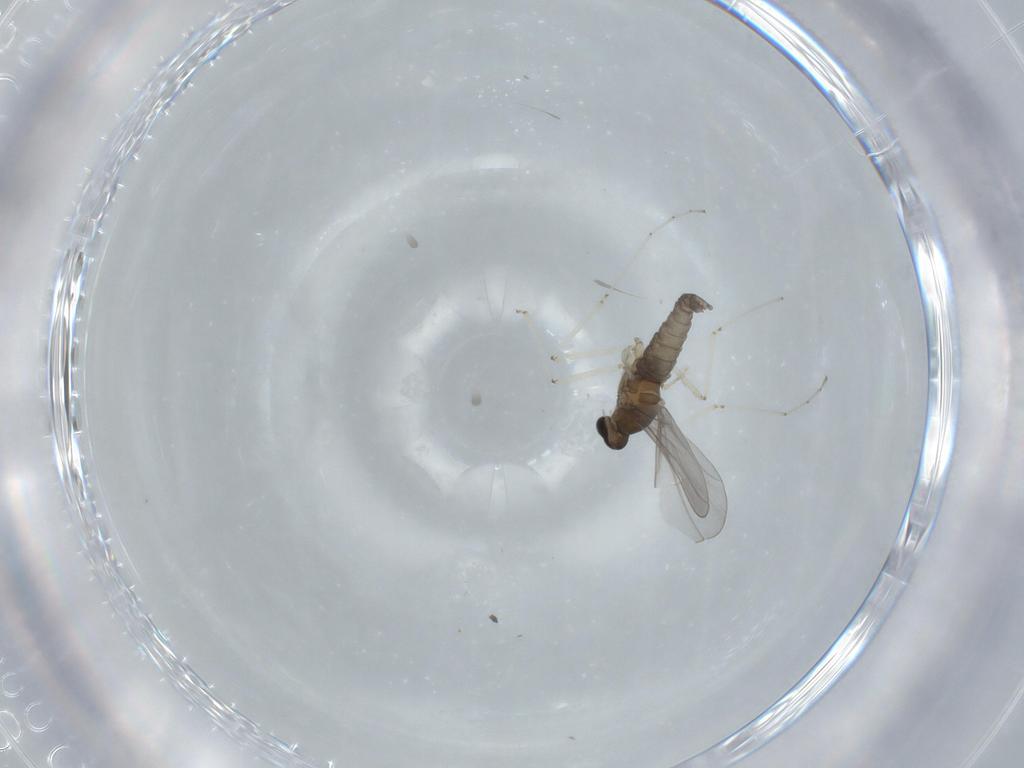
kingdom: Animalia
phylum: Arthropoda
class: Insecta
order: Diptera
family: Cecidomyiidae
